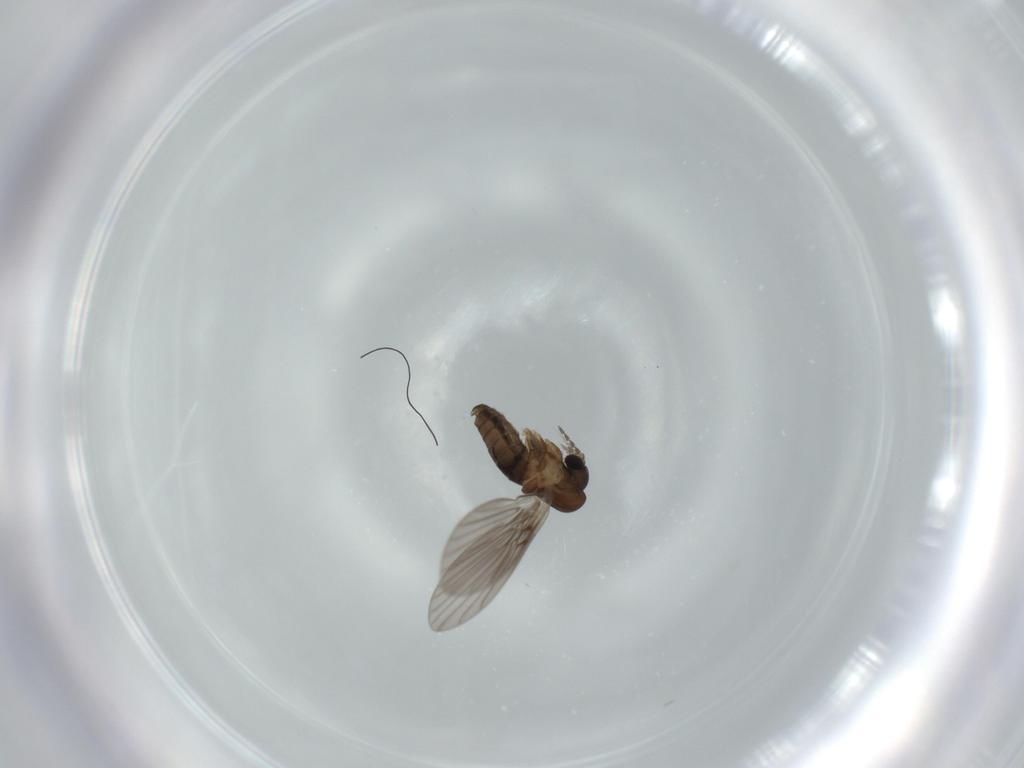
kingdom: Animalia
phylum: Arthropoda
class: Insecta
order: Diptera
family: Psychodidae
